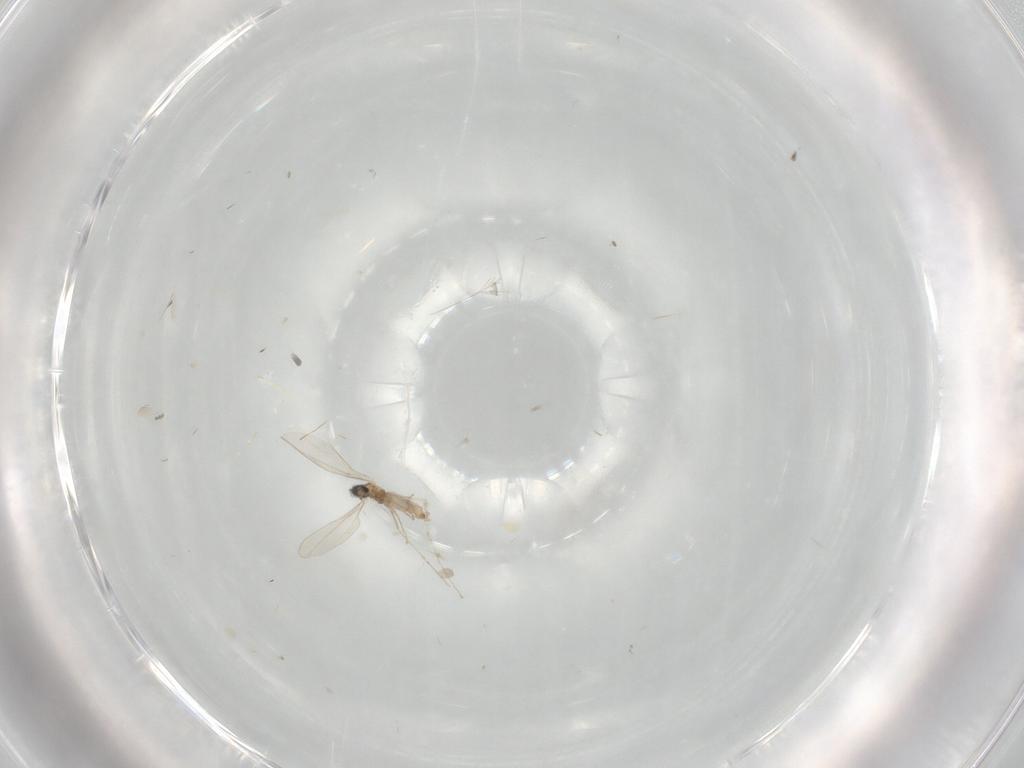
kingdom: Animalia
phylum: Arthropoda
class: Insecta
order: Diptera
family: Cecidomyiidae
